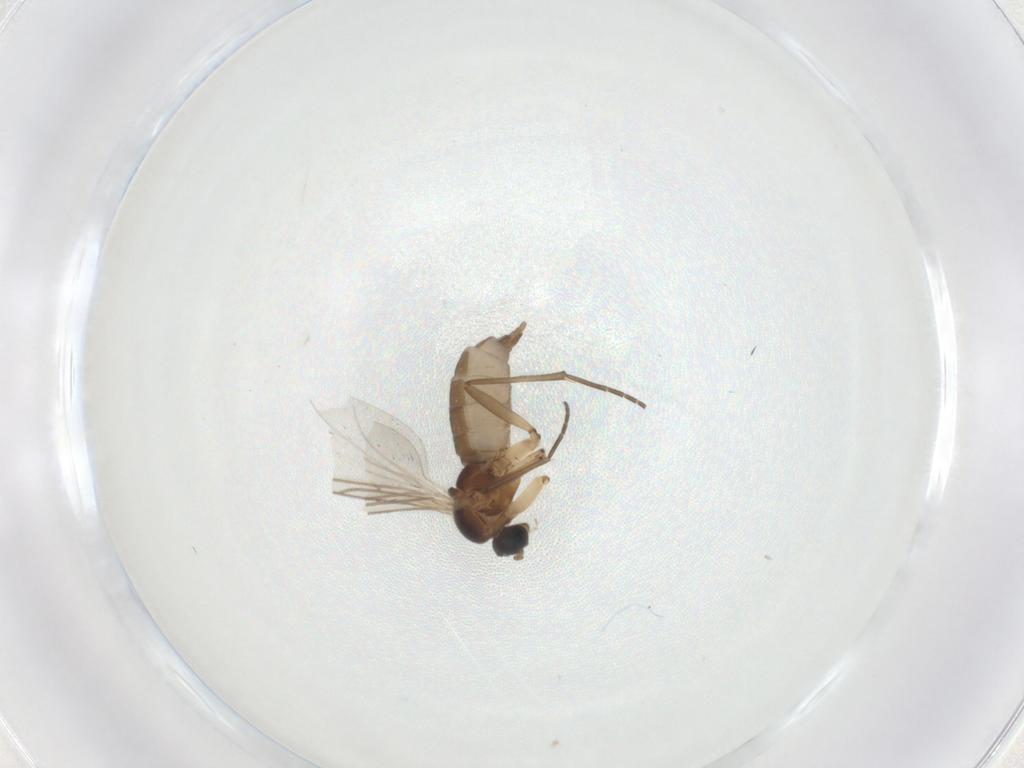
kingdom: Animalia
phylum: Arthropoda
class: Insecta
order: Diptera
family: Sciaridae
